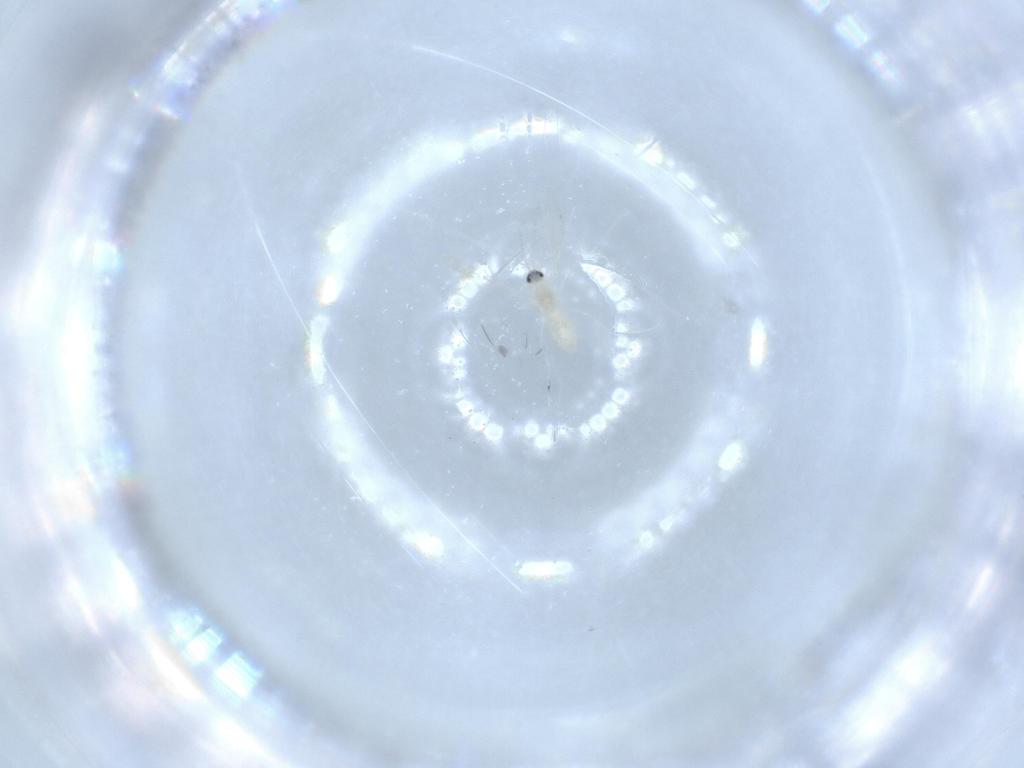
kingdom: Animalia
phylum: Arthropoda
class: Insecta
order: Diptera
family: Cecidomyiidae
